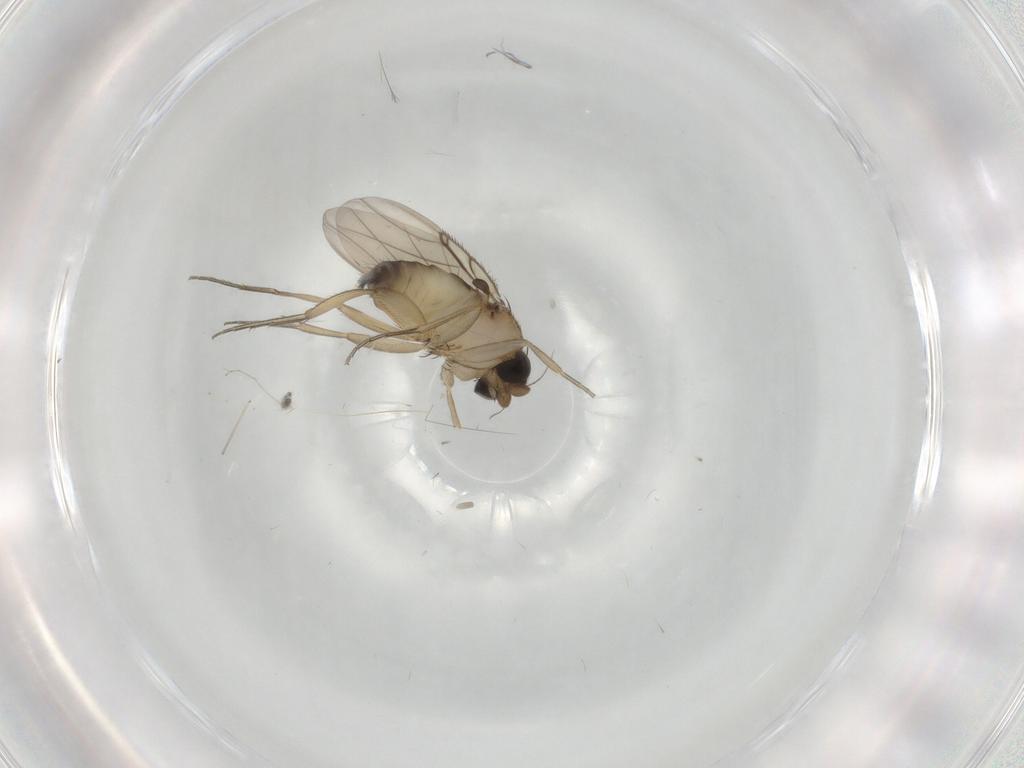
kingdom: Animalia
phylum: Arthropoda
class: Insecta
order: Diptera
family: Phoridae
